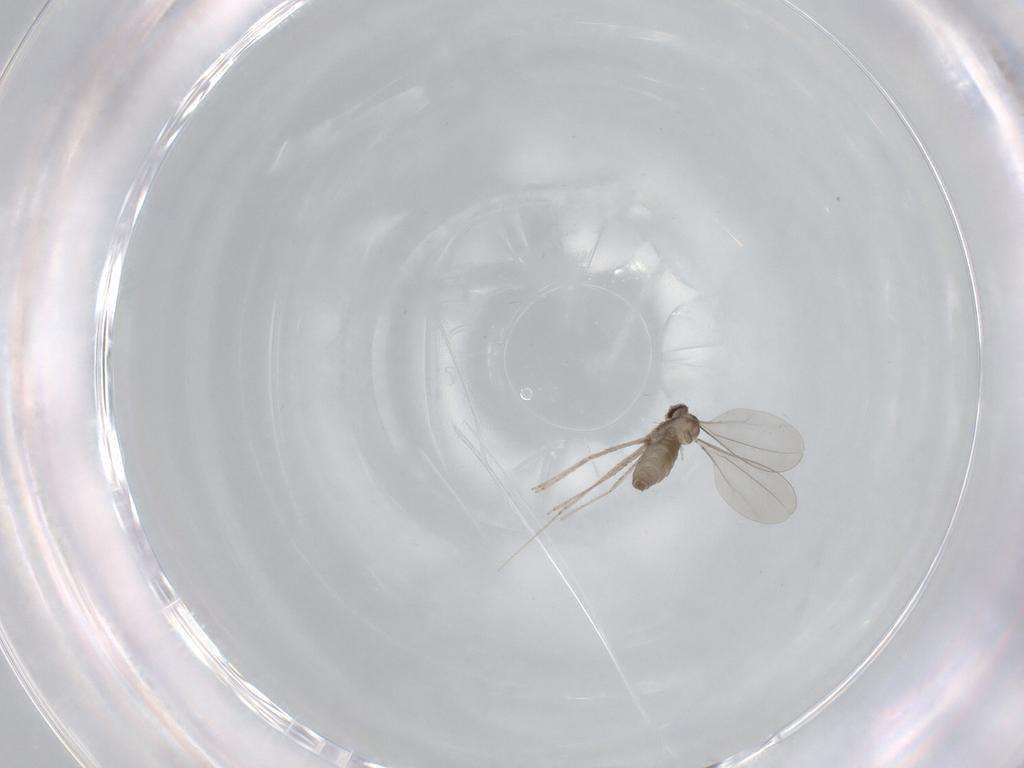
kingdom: Animalia
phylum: Arthropoda
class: Insecta
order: Diptera
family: Cecidomyiidae
